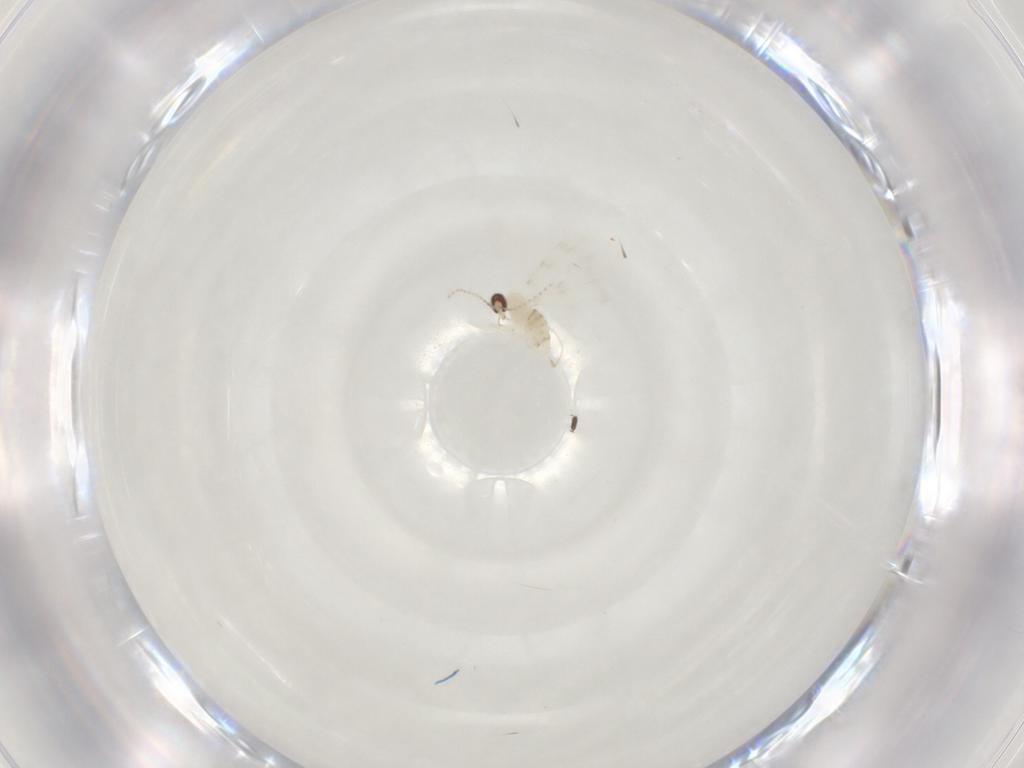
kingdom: Animalia
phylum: Arthropoda
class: Insecta
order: Diptera
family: Cecidomyiidae
